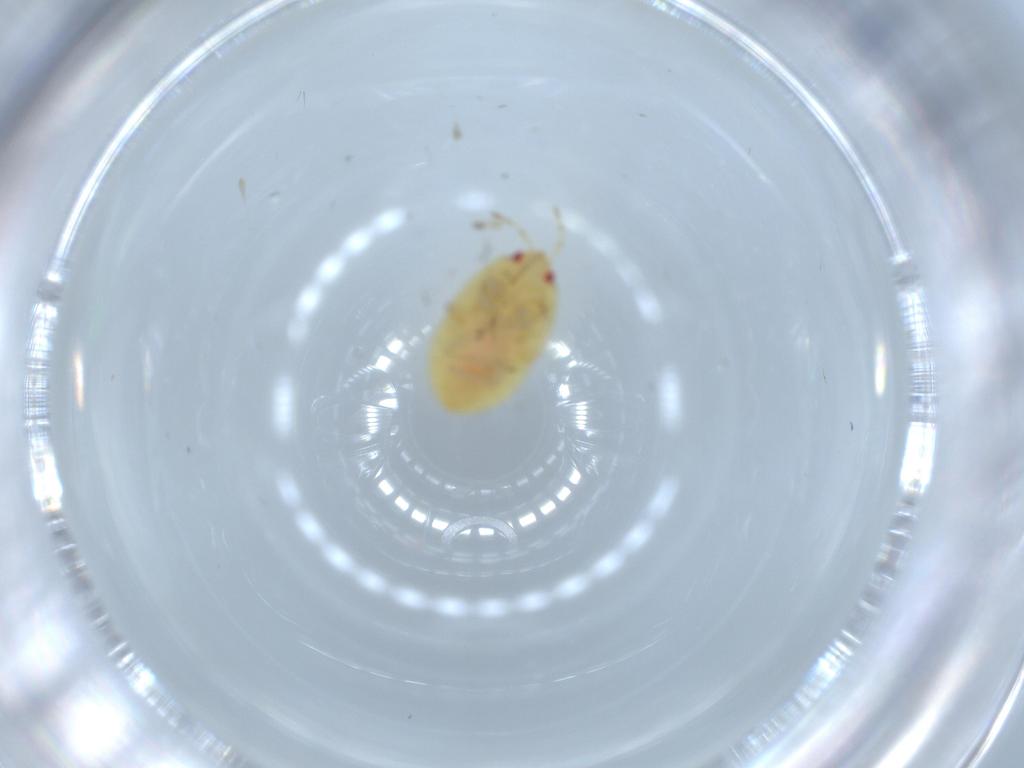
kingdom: Animalia
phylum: Arthropoda
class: Insecta
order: Hemiptera
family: Anthocoridae
